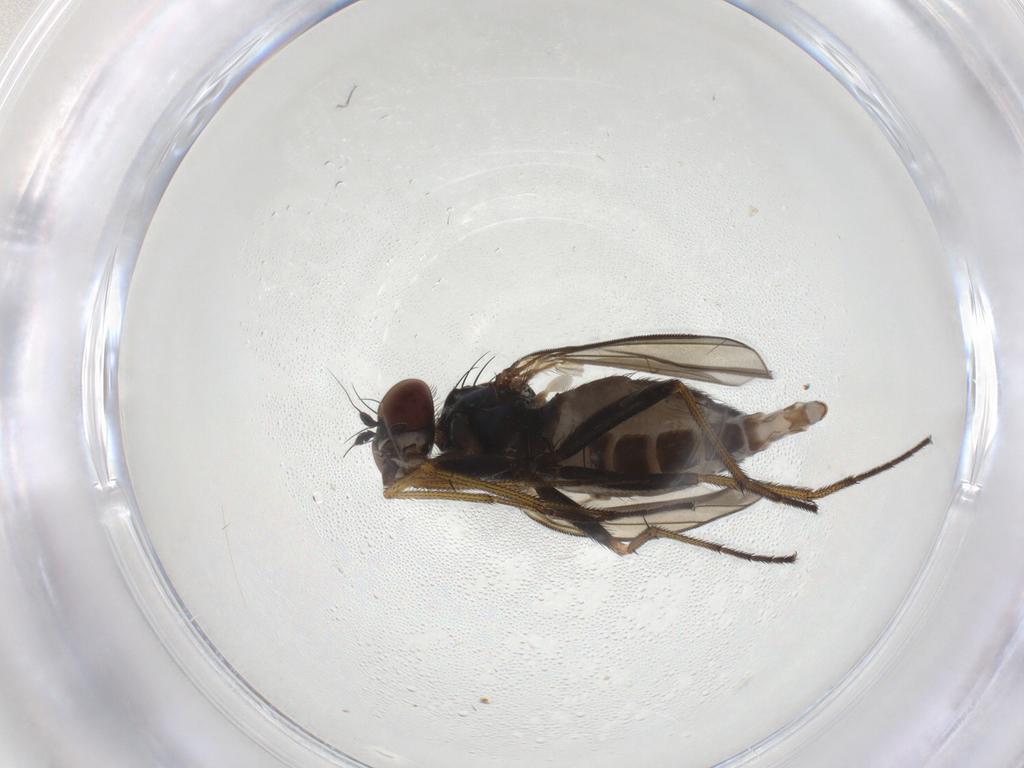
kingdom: Animalia
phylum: Arthropoda
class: Insecta
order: Diptera
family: Dolichopodidae
